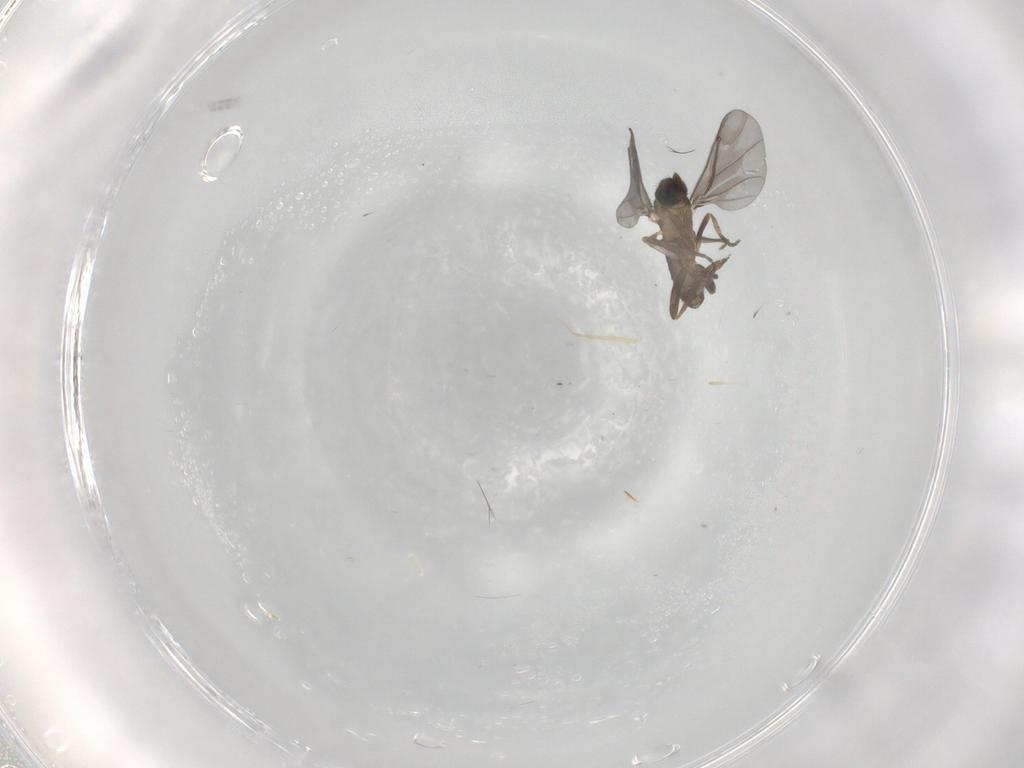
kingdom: Animalia
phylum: Arthropoda
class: Insecta
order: Diptera
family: Phoridae
